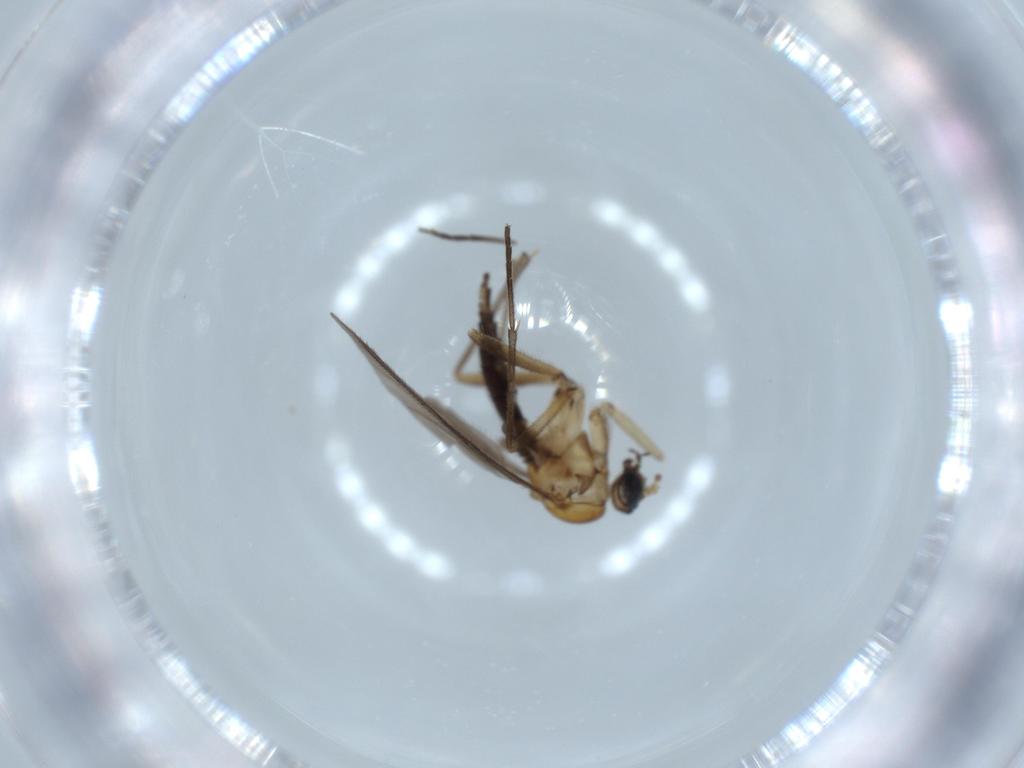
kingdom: Animalia
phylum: Arthropoda
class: Insecta
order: Diptera
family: Sciaridae
